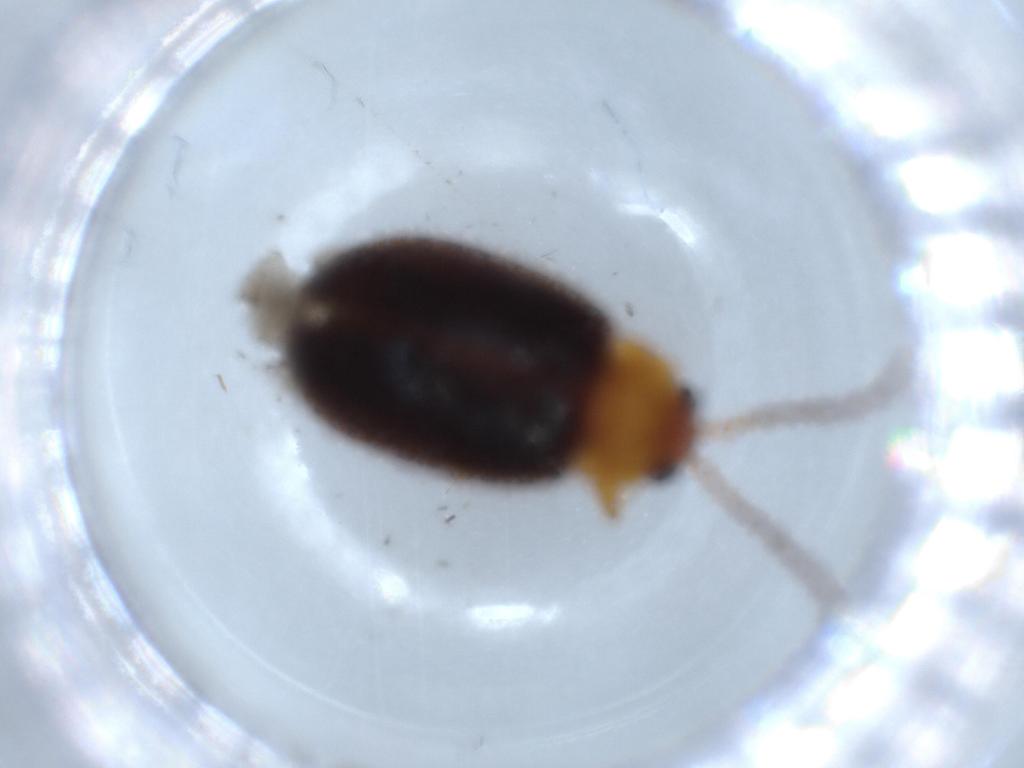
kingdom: Animalia
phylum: Arthropoda
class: Insecta
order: Coleoptera
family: Chrysomelidae
